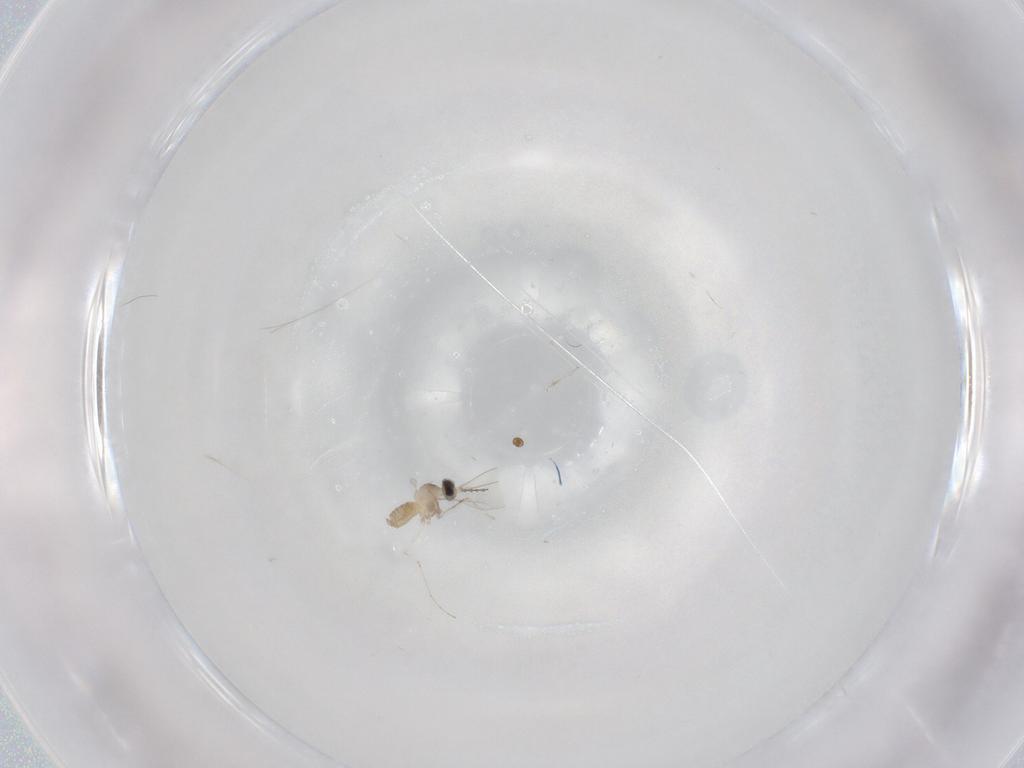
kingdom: Animalia
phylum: Arthropoda
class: Insecta
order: Diptera
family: Cecidomyiidae
